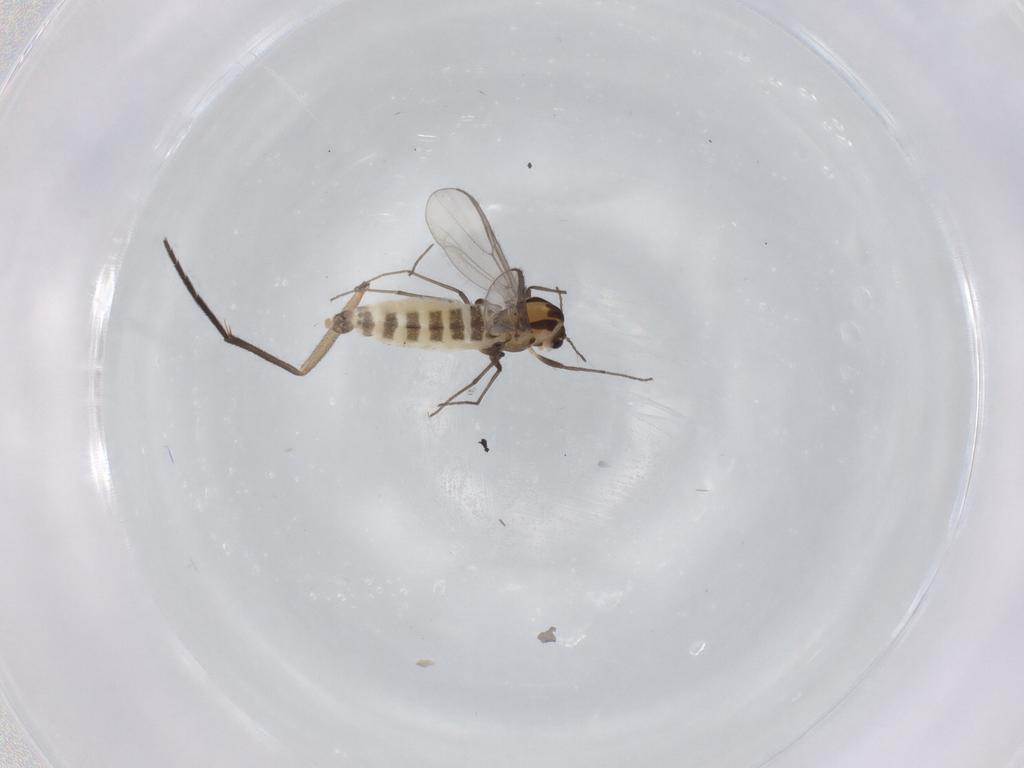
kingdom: Animalia
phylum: Arthropoda
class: Insecta
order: Diptera
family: Chironomidae
